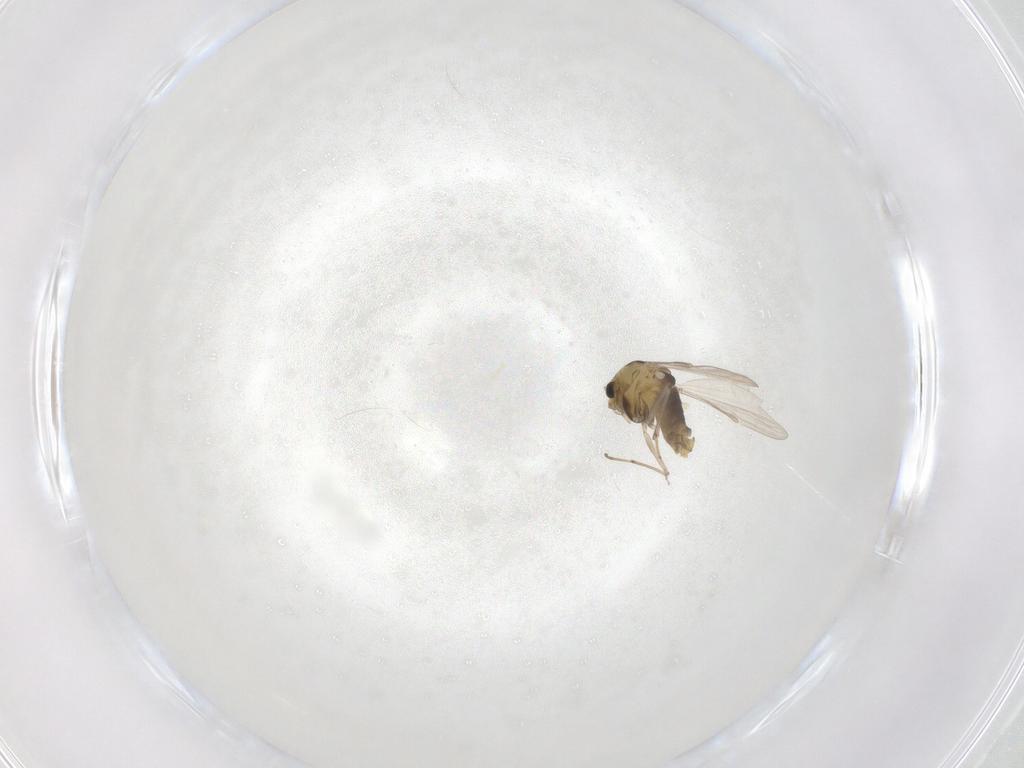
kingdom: Animalia
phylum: Arthropoda
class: Insecta
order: Diptera
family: Chironomidae
